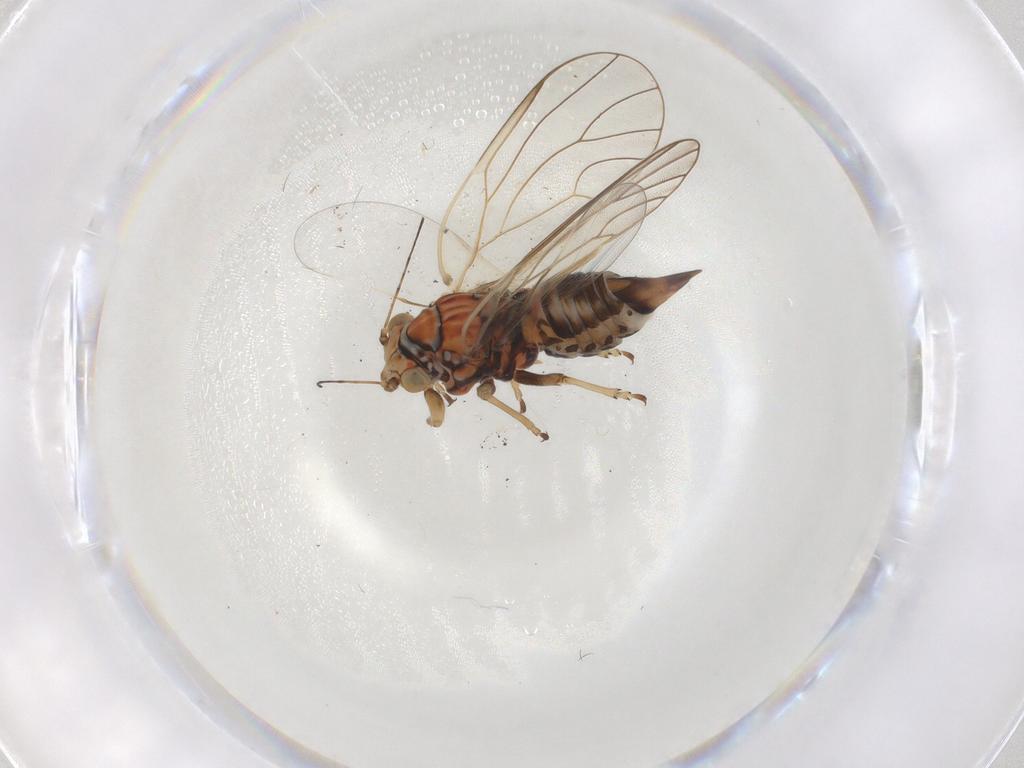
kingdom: Animalia
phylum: Arthropoda
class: Insecta
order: Hemiptera
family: Psyllidae
